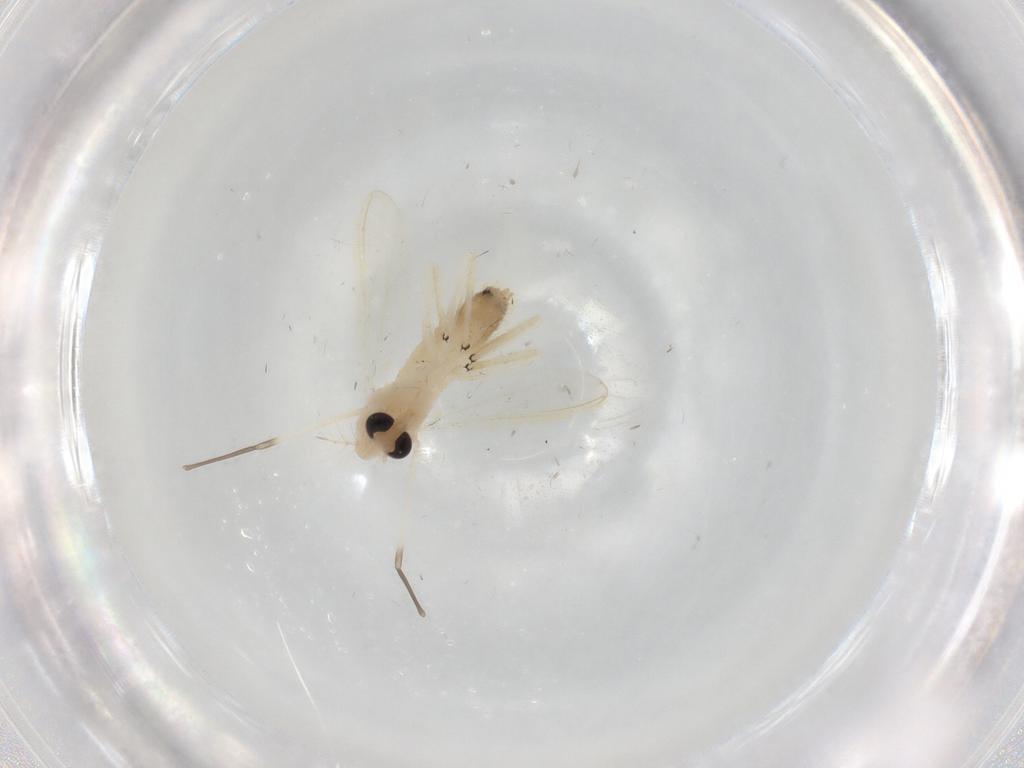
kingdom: Animalia
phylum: Arthropoda
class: Insecta
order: Diptera
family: Chironomidae
